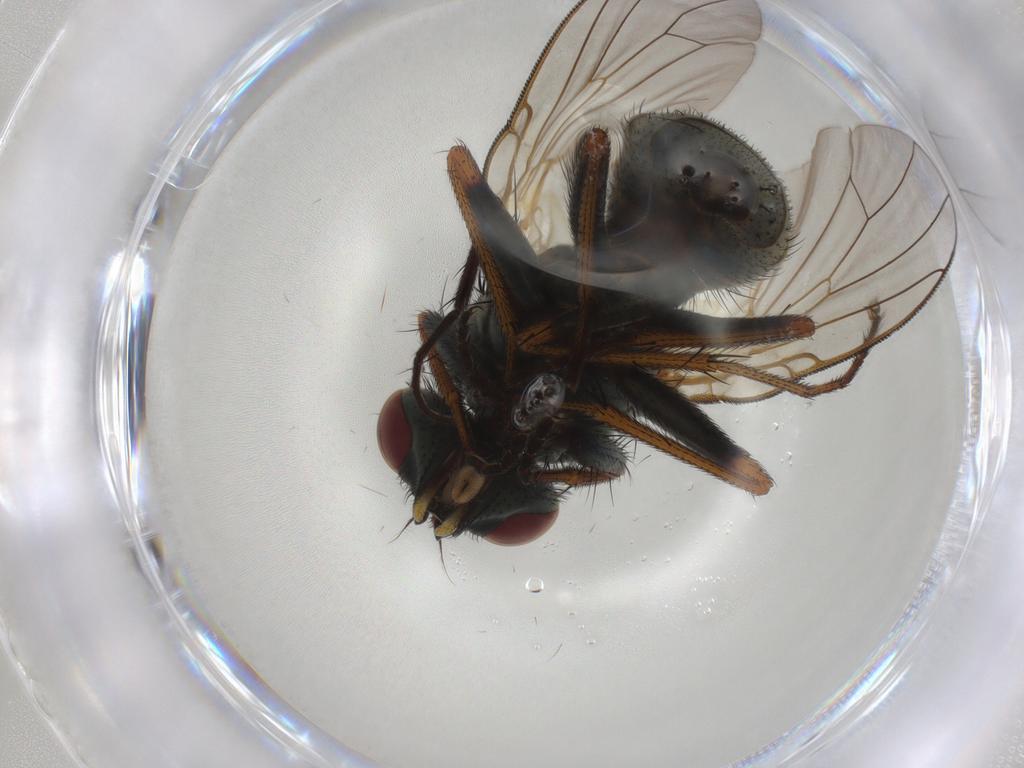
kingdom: Animalia
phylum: Arthropoda
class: Insecta
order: Diptera
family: Muscidae
